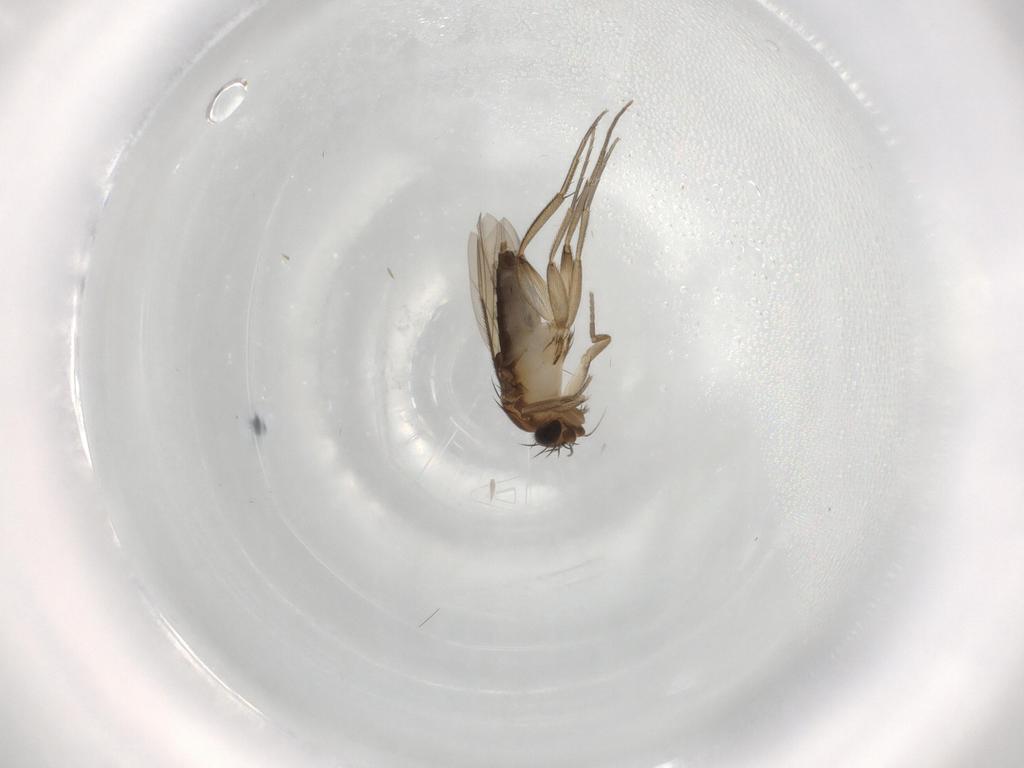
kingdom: Animalia
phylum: Arthropoda
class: Insecta
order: Diptera
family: Phoridae
